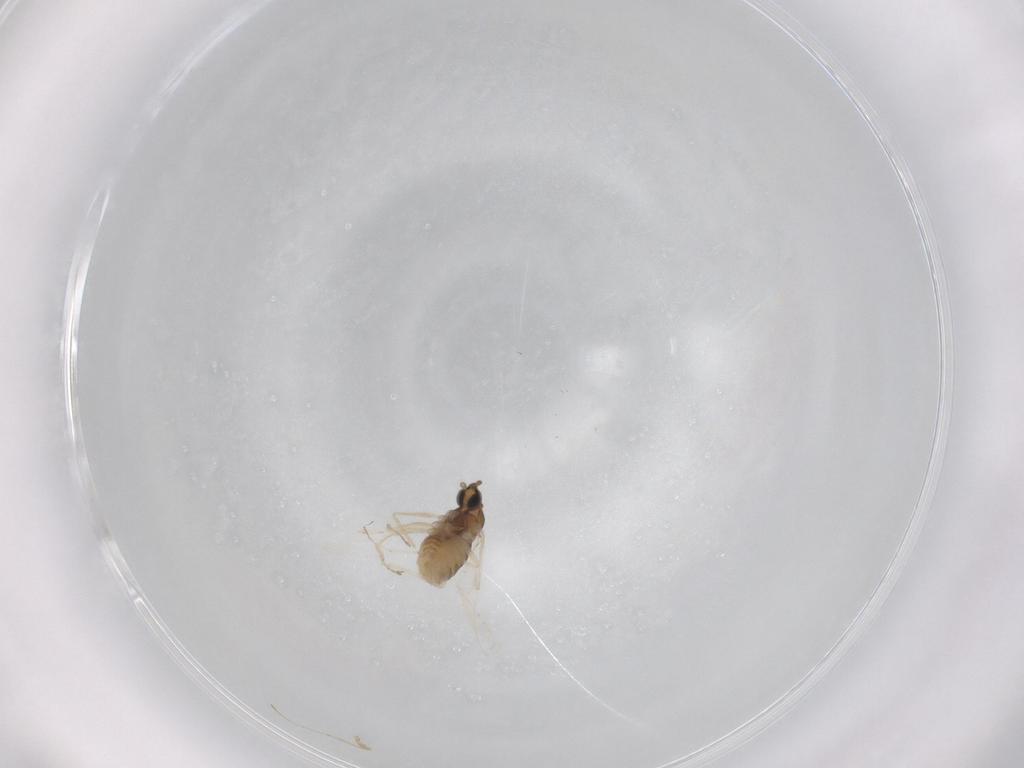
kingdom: Animalia
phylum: Arthropoda
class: Insecta
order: Diptera
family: Cecidomyiidae
